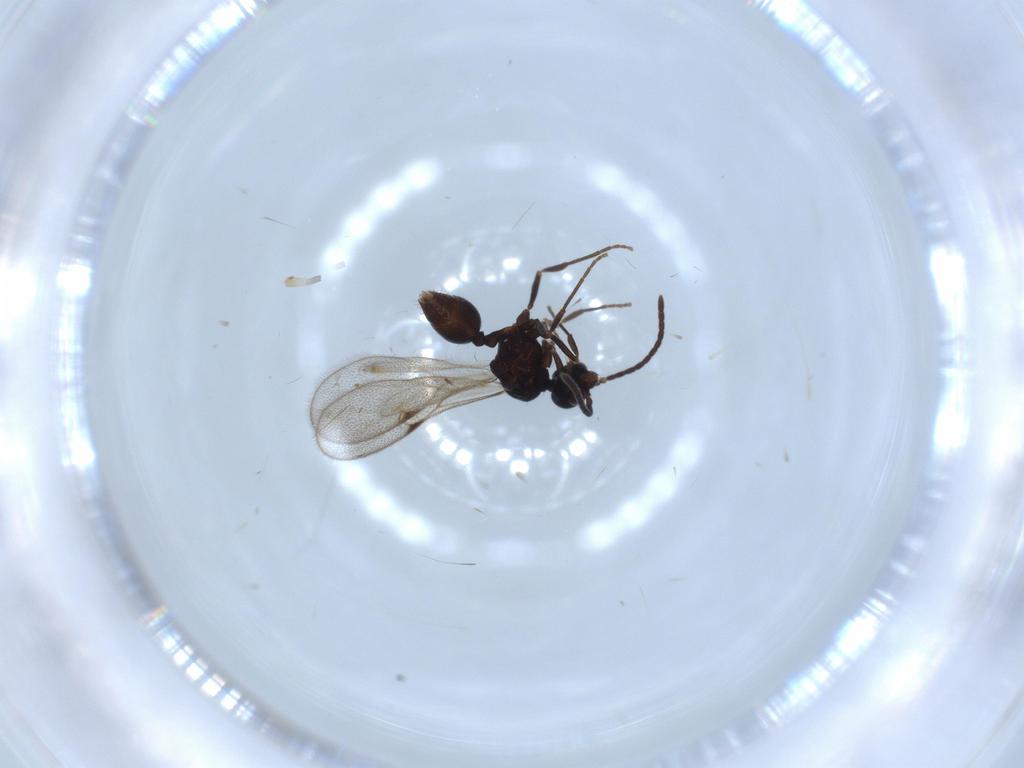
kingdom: Animalia
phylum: Arthropoda
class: Insecta
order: Hymenoptera
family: Formicidae
